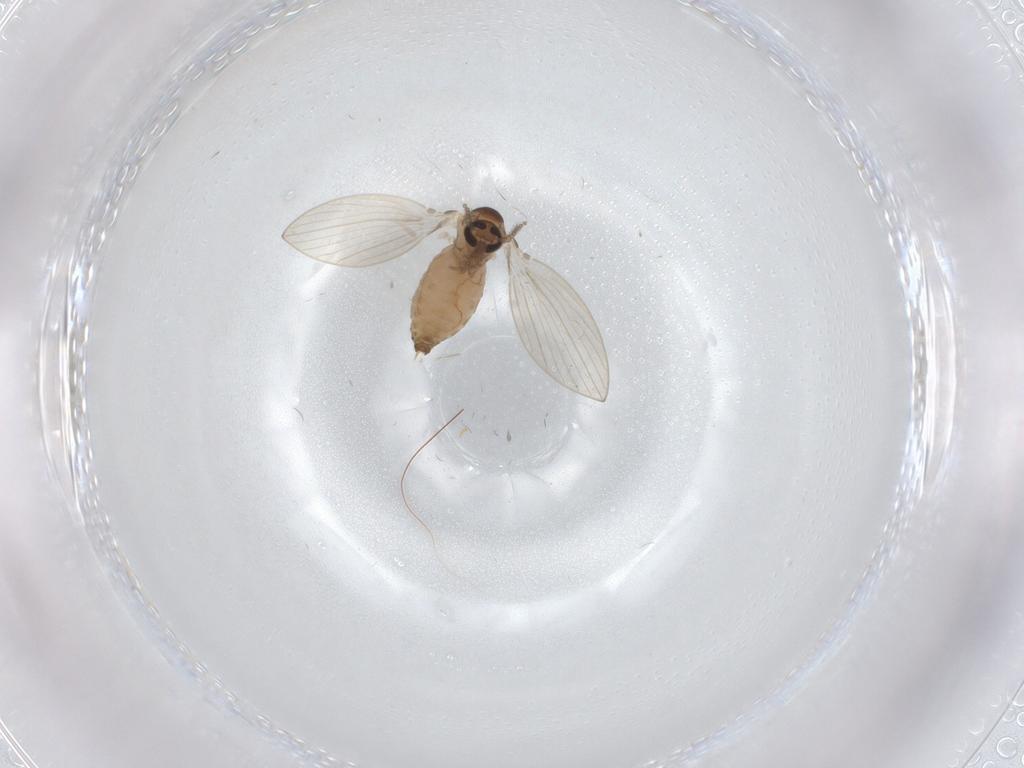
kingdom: Animalia
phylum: Arthropoda
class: Insecta
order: Diptera
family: Psychodidae
